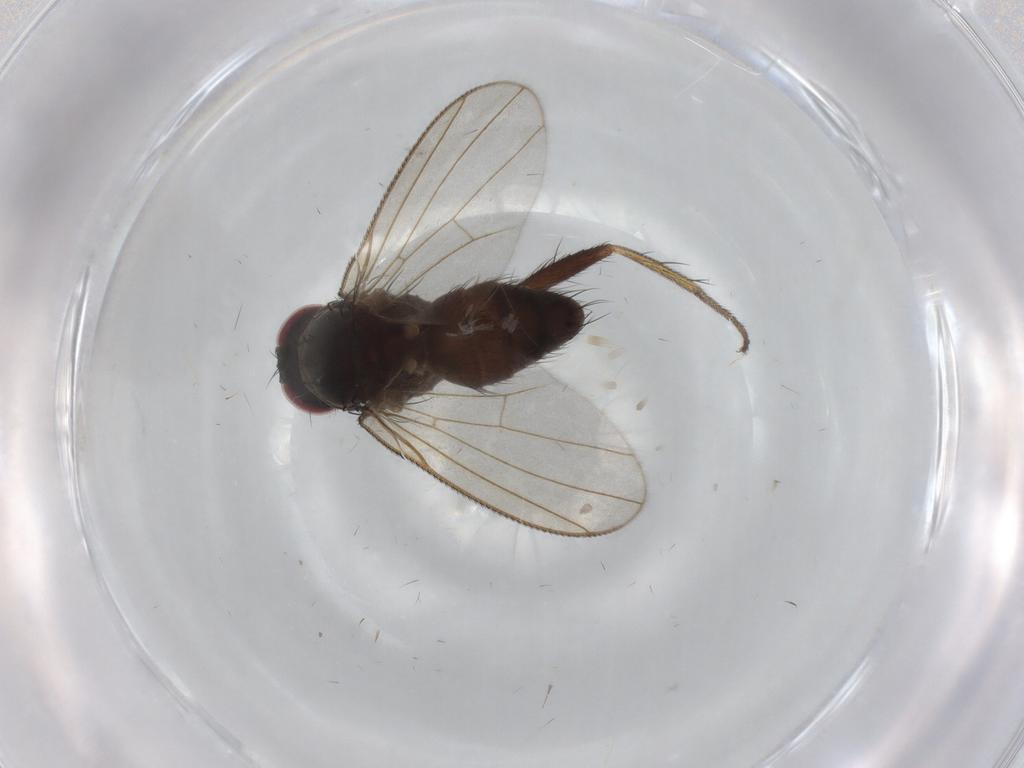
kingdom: Animalia
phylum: Arthropoda
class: Insecta
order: Diptera
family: Muscidae
